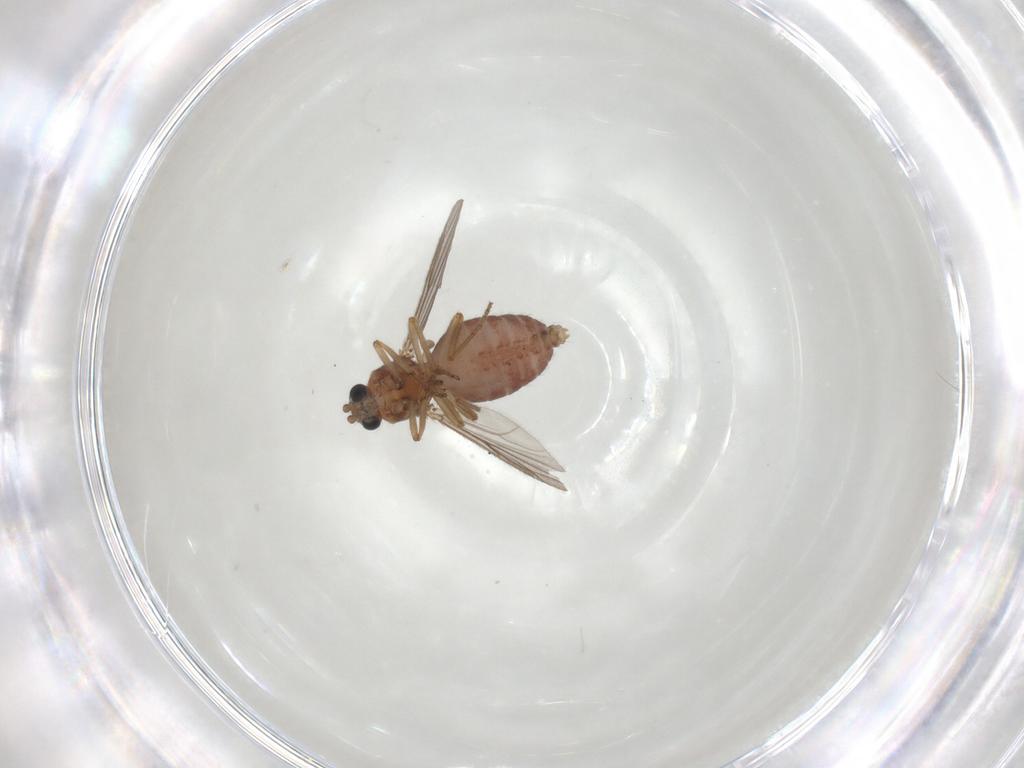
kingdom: Animalia
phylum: Arthropoda
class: Insecta
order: Diptera
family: Ceratopogonidae
